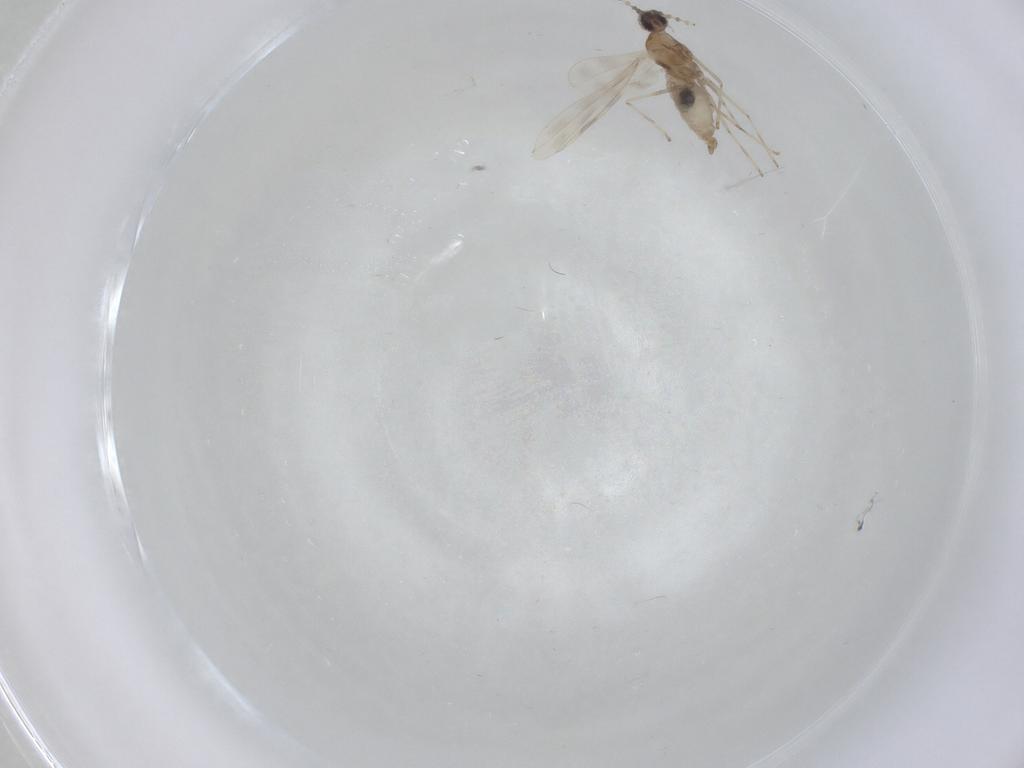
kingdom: Animalia
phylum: Arthropoda
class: Insecta
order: Diptera
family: Cecidomyiidae
